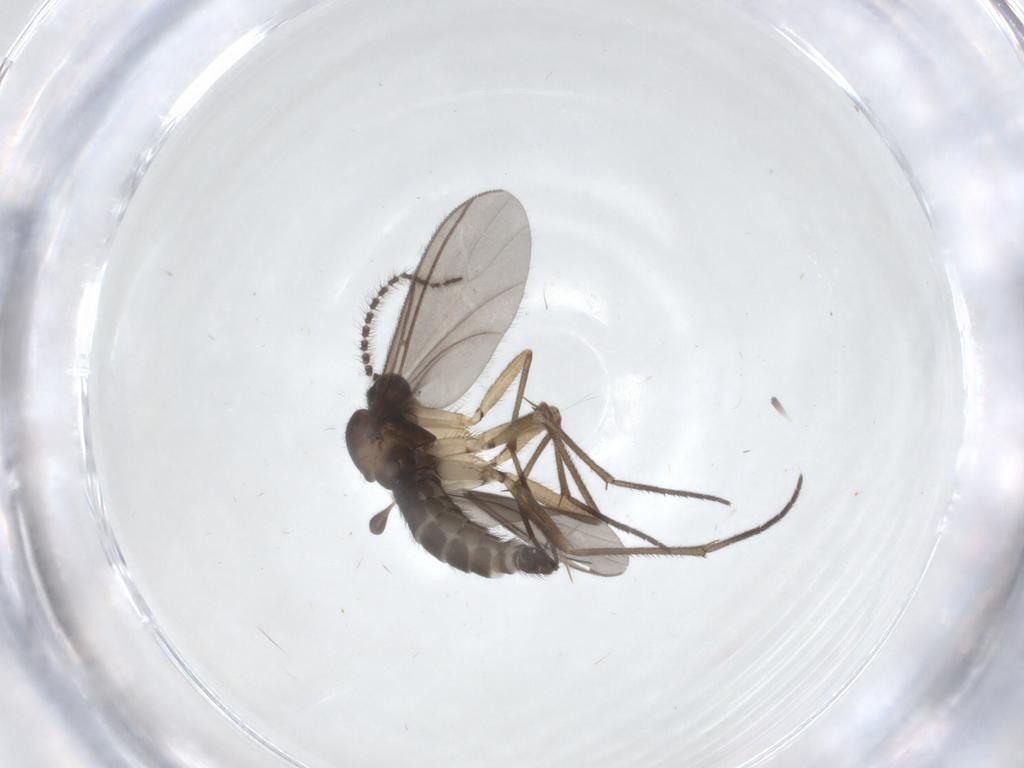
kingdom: Animalia
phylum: Arthropoda
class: Insecta
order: Diptera
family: Sciaridae
